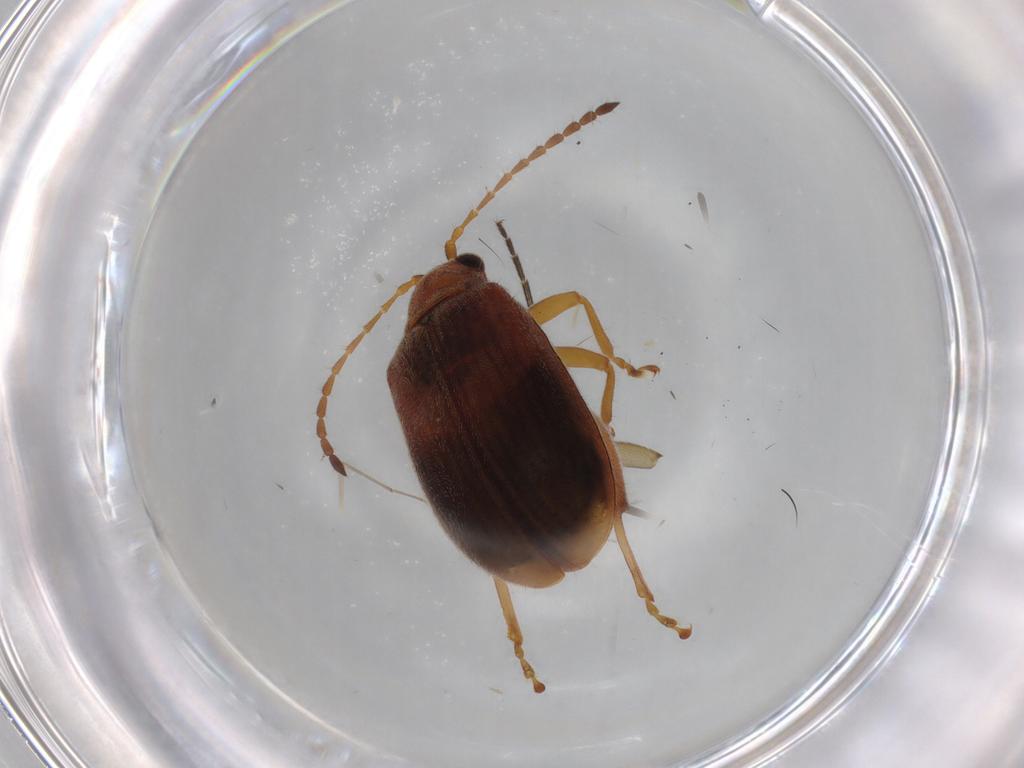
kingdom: Animalia
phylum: Arthropoda
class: Insecta
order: Coleoptera
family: Chrysomelidae
